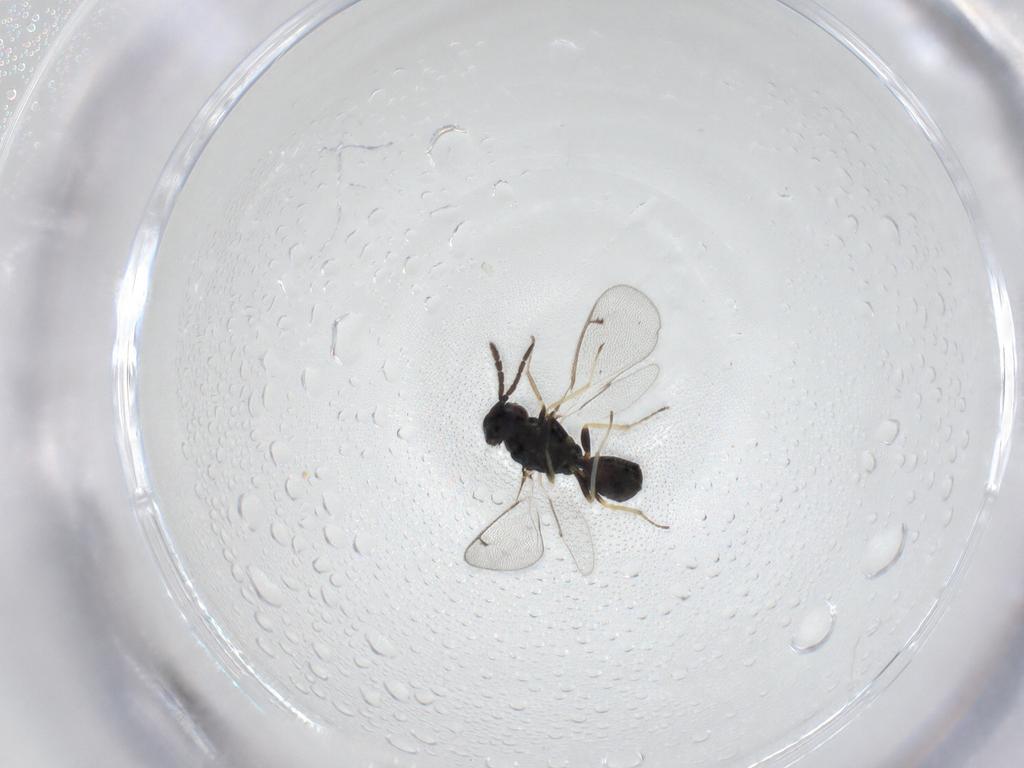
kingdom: Animalia
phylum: Arthropoda
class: Insecta
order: Hymenoptera
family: Eulophidae
